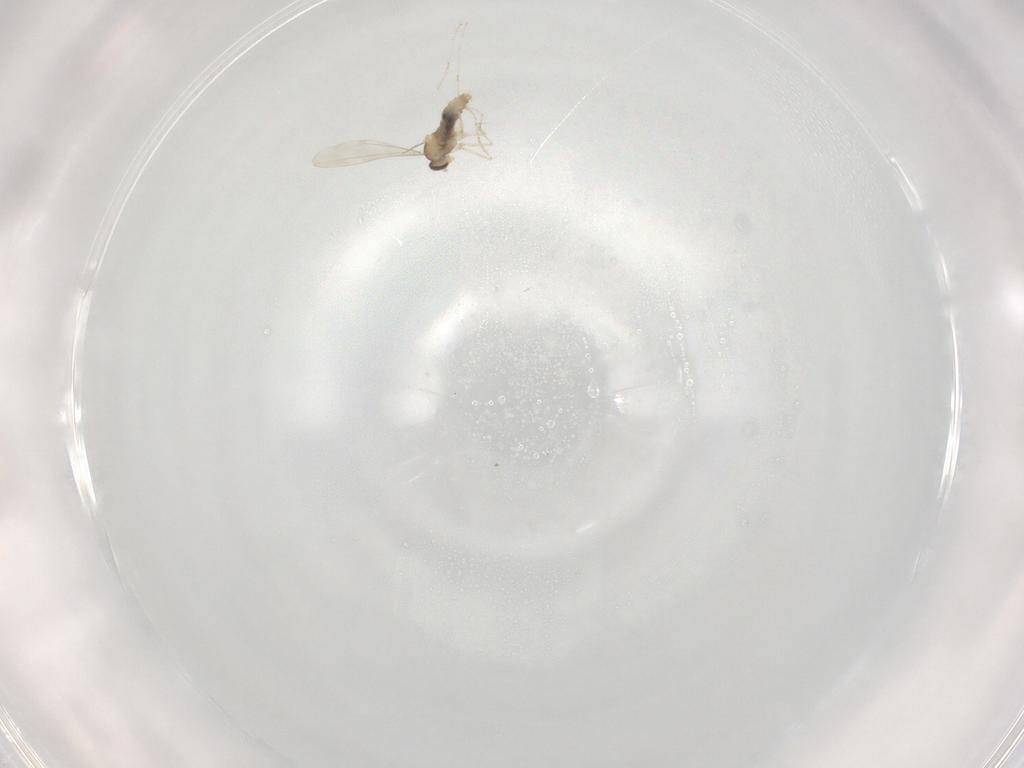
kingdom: Animalia
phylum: Arthropoda
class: Insecta
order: Diptera
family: Cecidomyiidae
